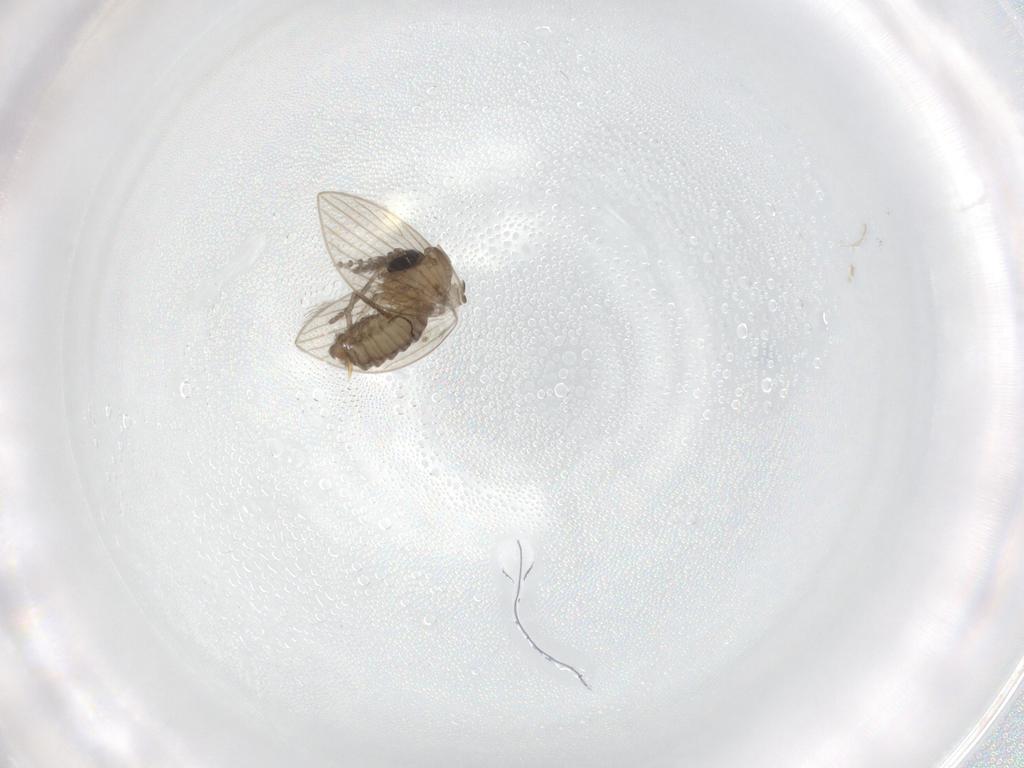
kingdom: Animalia
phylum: Arthropoda
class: Insecta
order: Diptera
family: Psychodidae
